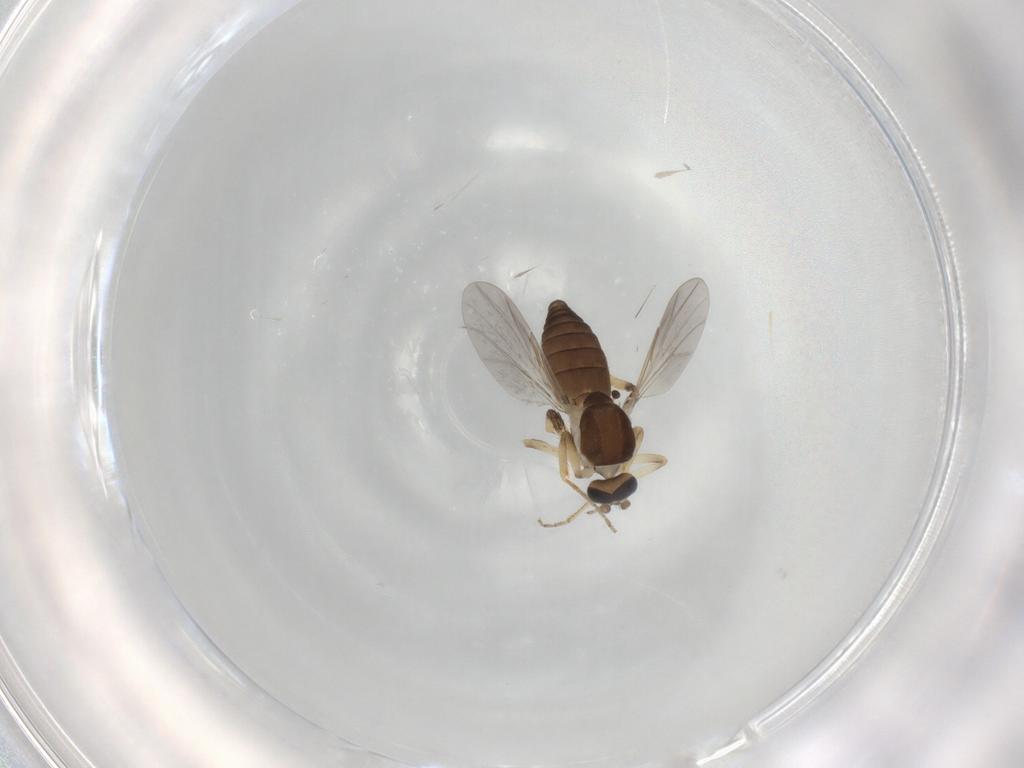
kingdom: Animalia
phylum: Arthropoda
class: Insecta
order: Diptera
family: Ceratopogonidae
